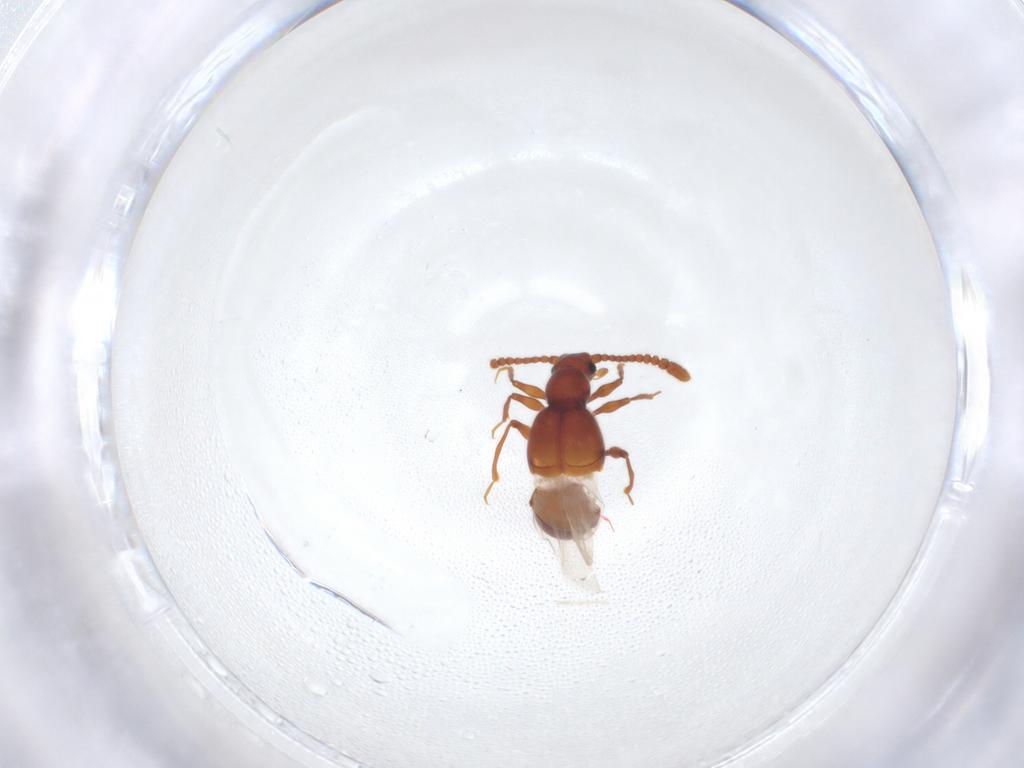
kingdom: Animalia
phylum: Arthropoda
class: Insecta
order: Coleoptera
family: Staphylinidae
